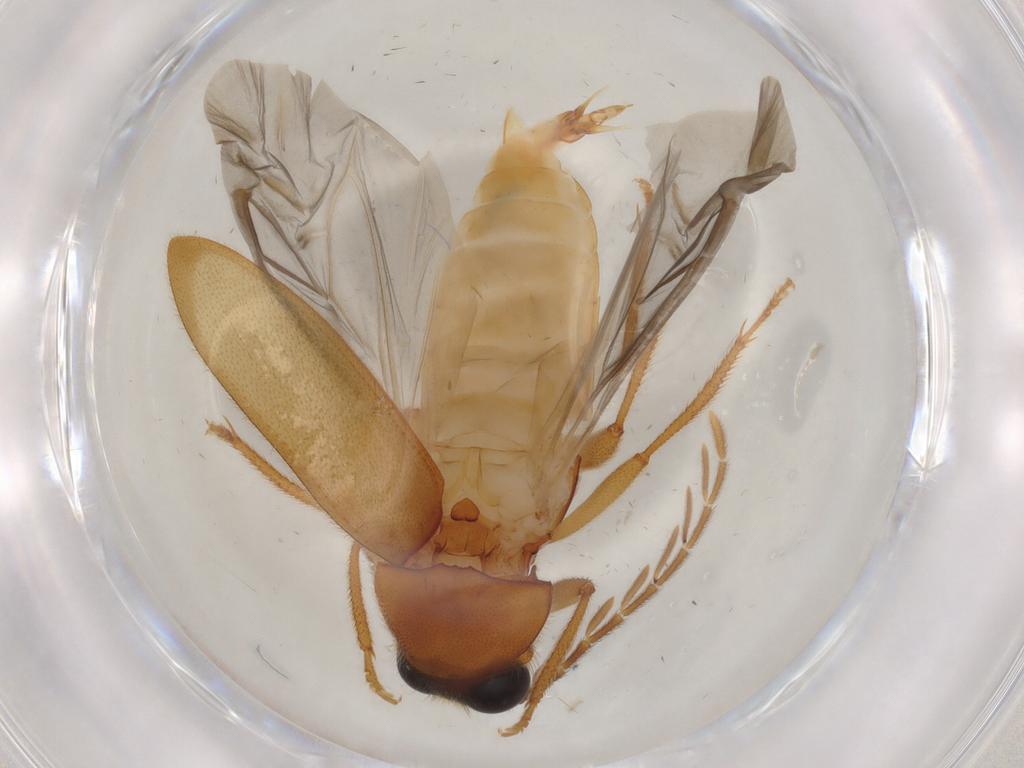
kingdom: Animalia
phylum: Arthropoda
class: Insecta
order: Coleoptera
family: Ptilodactylidae
